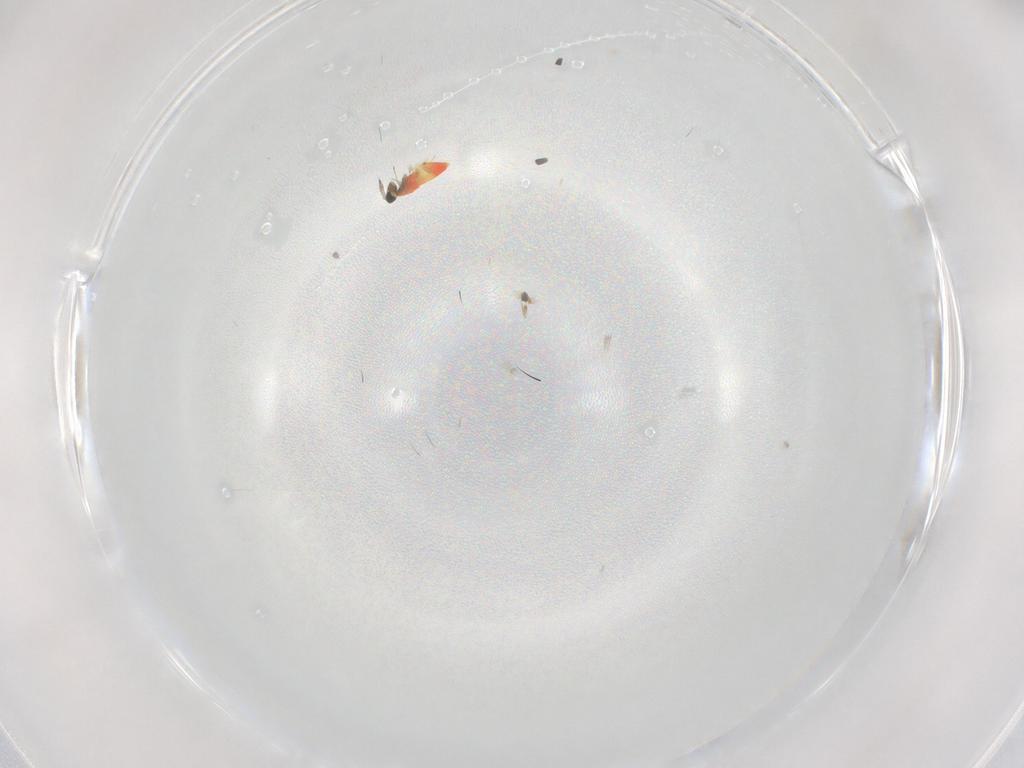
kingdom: Animalia
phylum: Arthropoda
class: Insecta
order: Hymenoptera
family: Trichogrammatidae
